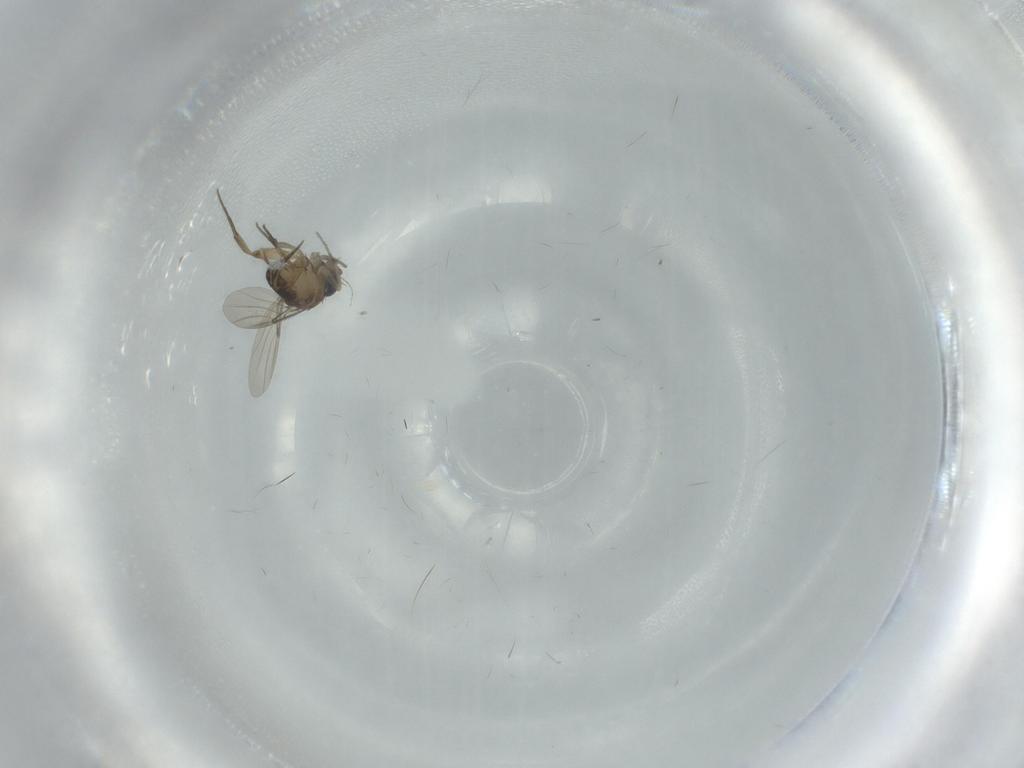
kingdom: Animalia
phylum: Arthropoda
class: Insecta
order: Diptera
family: Phoridae
